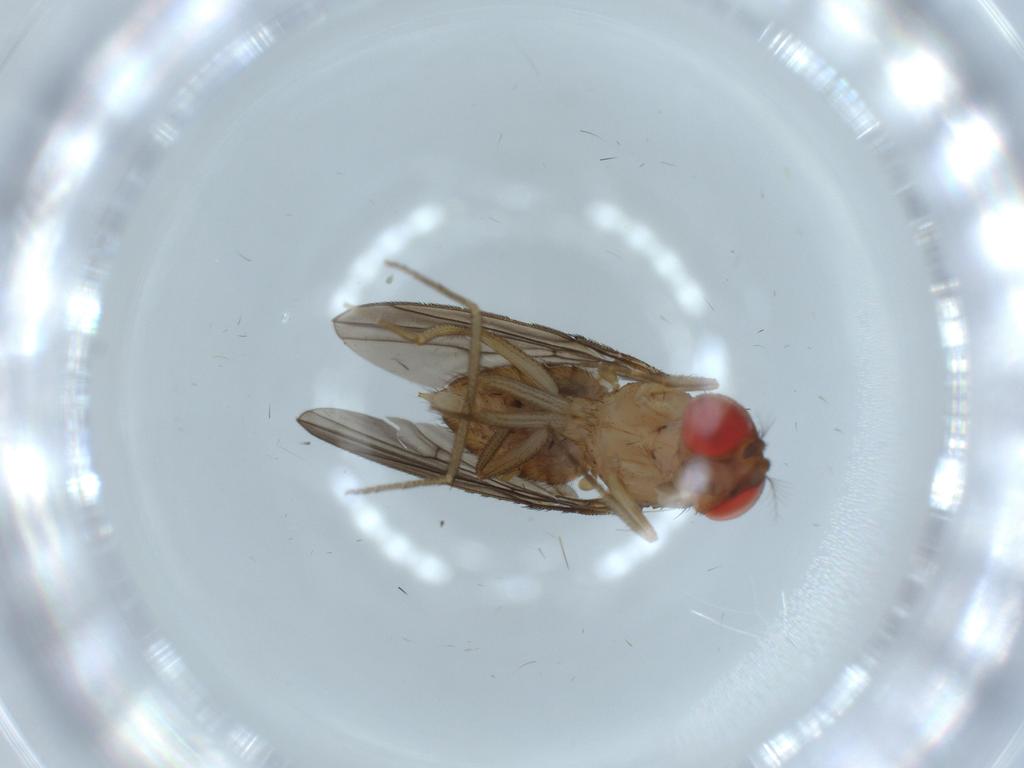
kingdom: Animalia
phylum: Arthropoda
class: Insecta
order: Diptera
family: Drosophilidae
